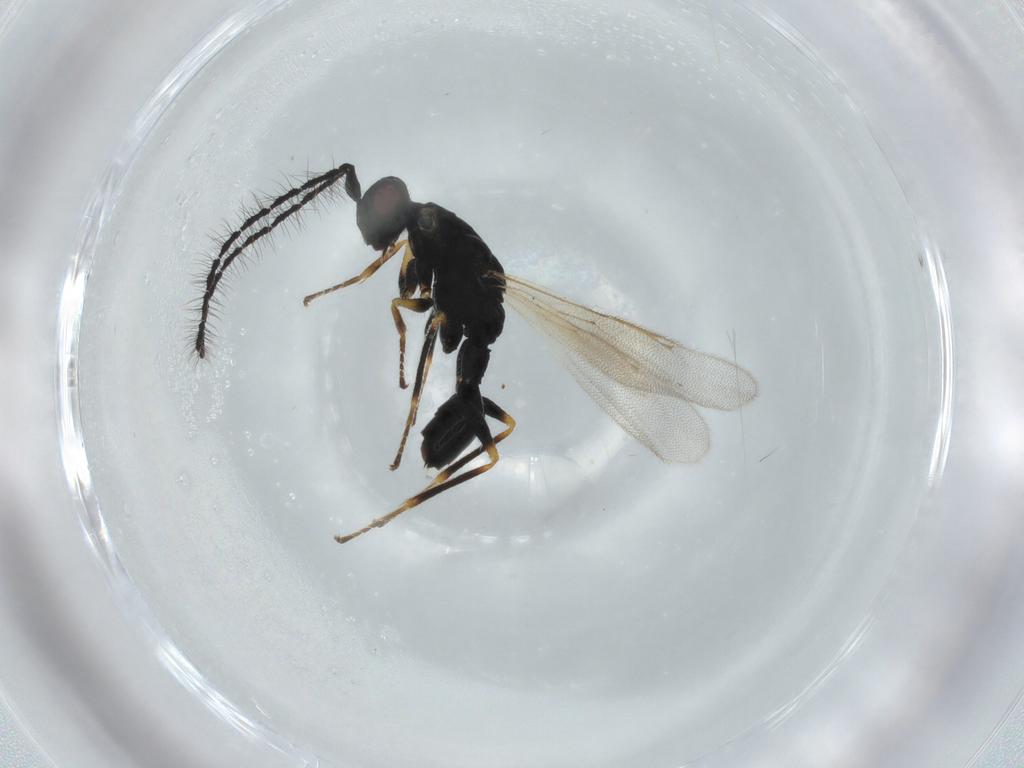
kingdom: Animalia
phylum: Arthropoda
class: Insecta
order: Hymenoptera
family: Eurytomidae
